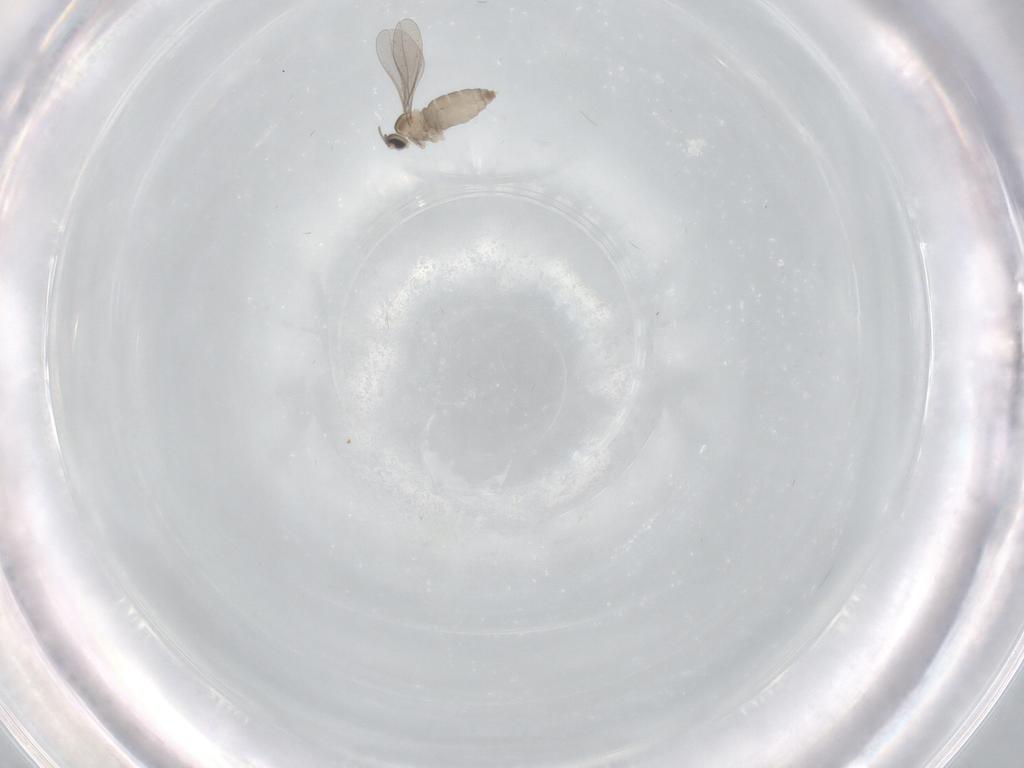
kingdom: Animalia
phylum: Arthropoda
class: Insecta
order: Diptera
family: Cecidomyiidae
